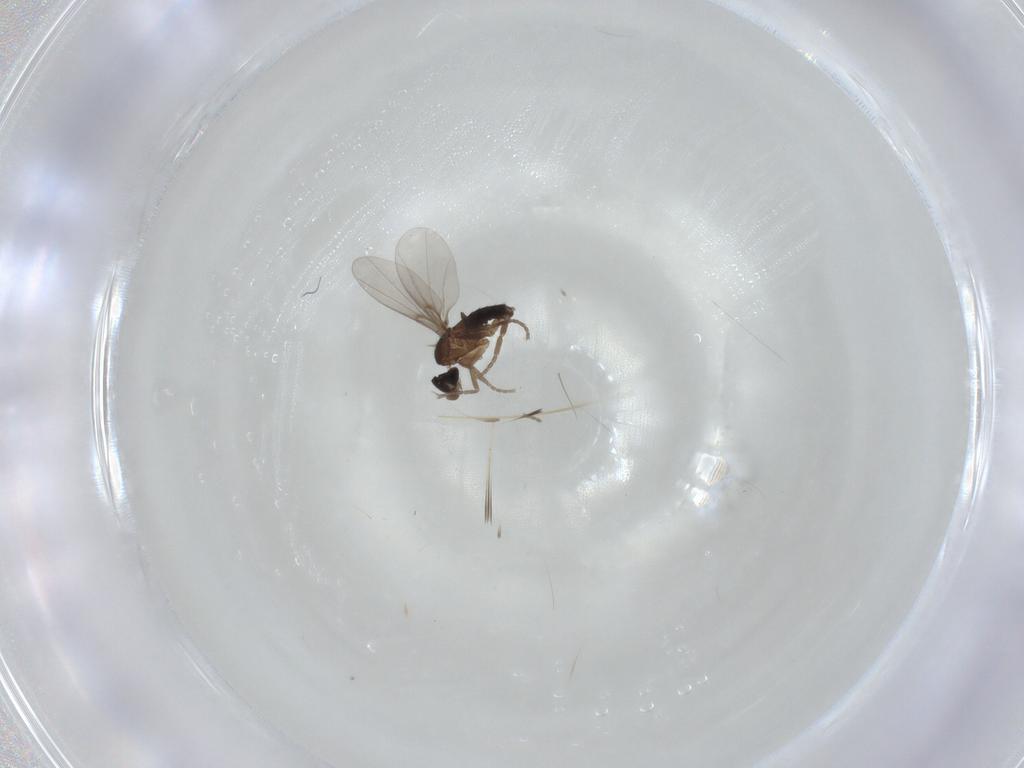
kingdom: Animalia
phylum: Arthropoda
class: Insecta
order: Diptera
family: Phoridae
